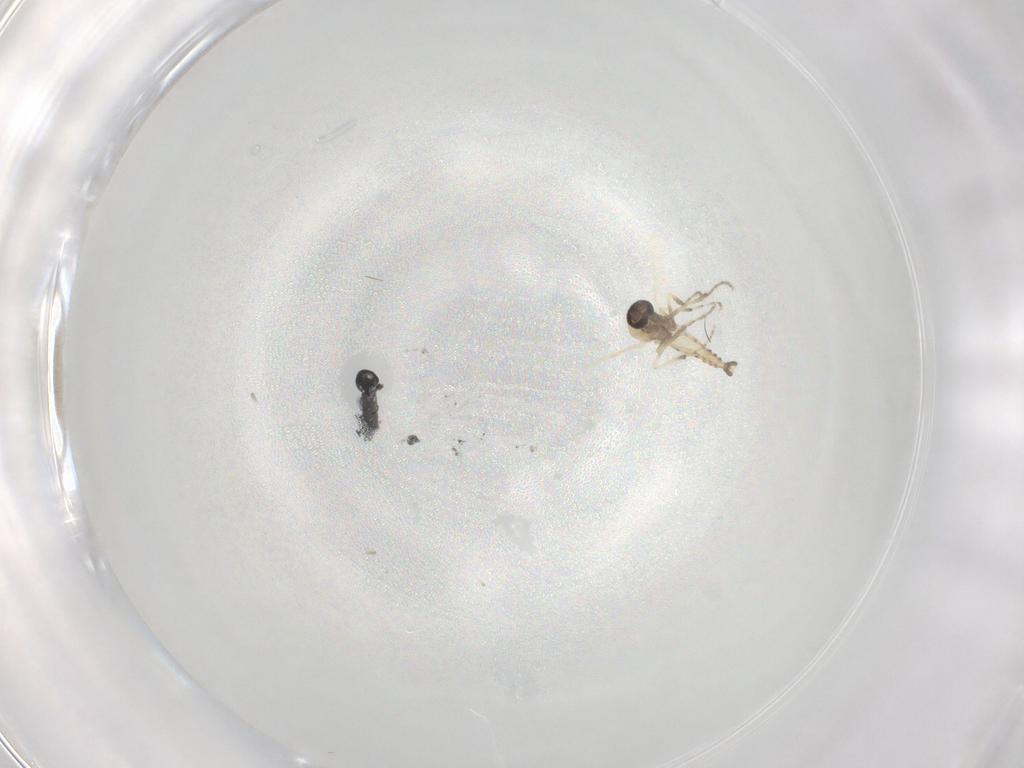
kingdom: Animalia
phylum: Arthropoda
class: Insecta
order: Diptera
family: Ceratopogonidae
